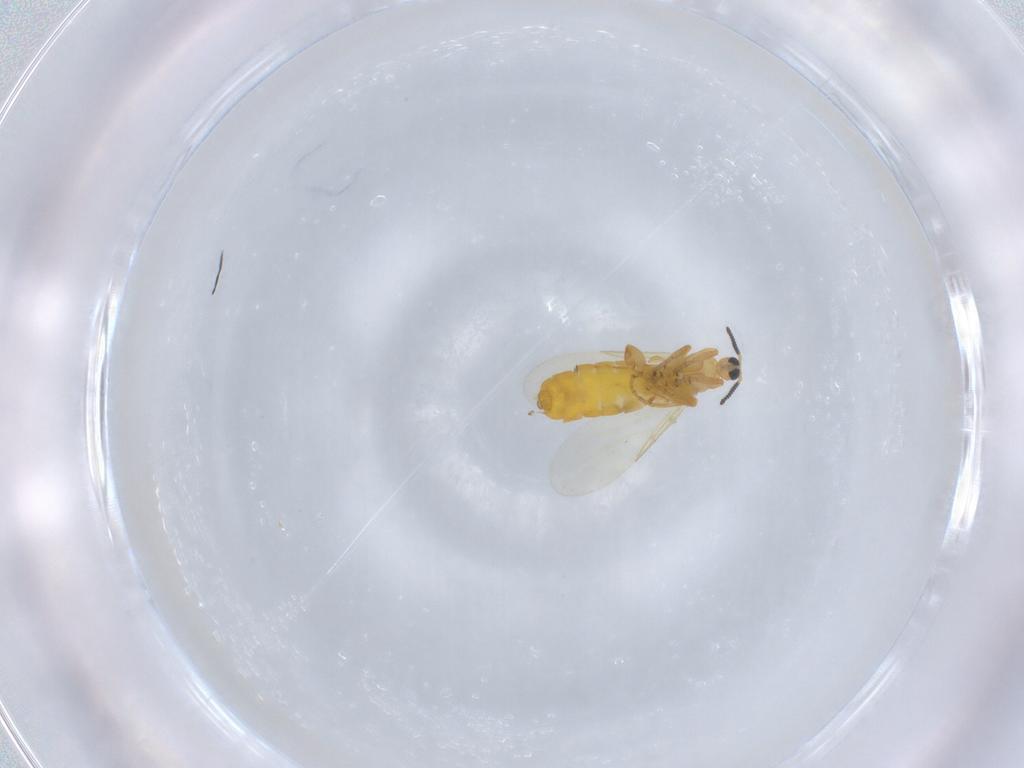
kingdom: Animalia
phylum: Arthropoda
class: Insecta
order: Diptera
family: Scatopsidae
